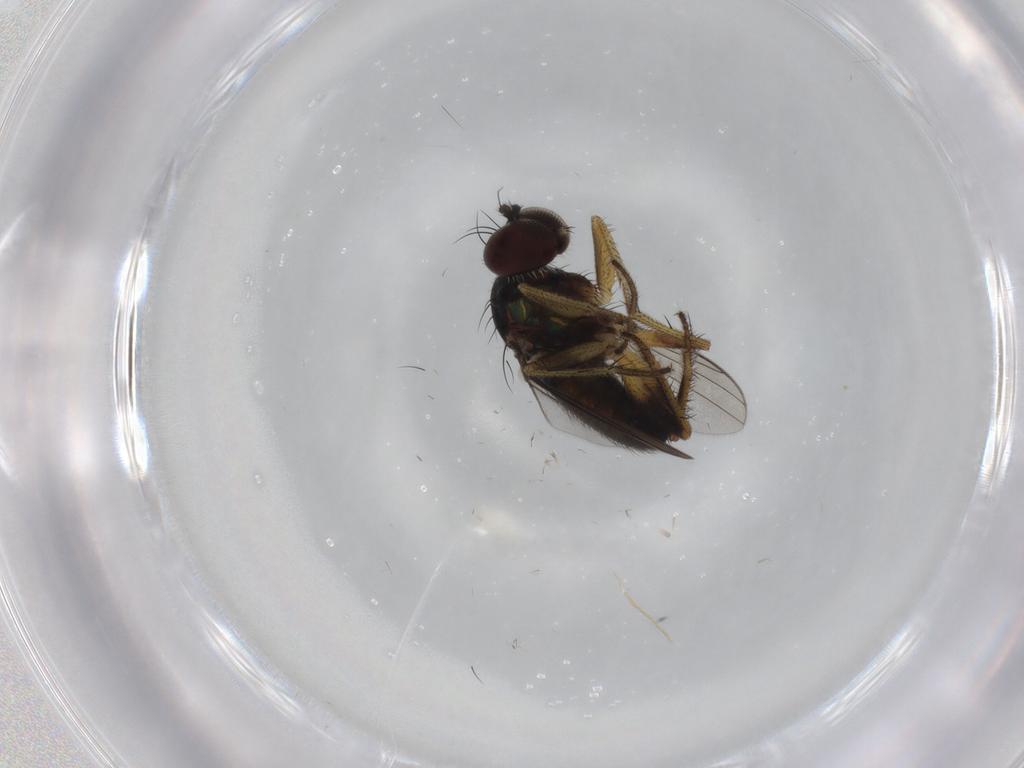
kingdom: Animalia
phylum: Arthropoda
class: Insecta
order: Diptera
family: Dolichopodidae
